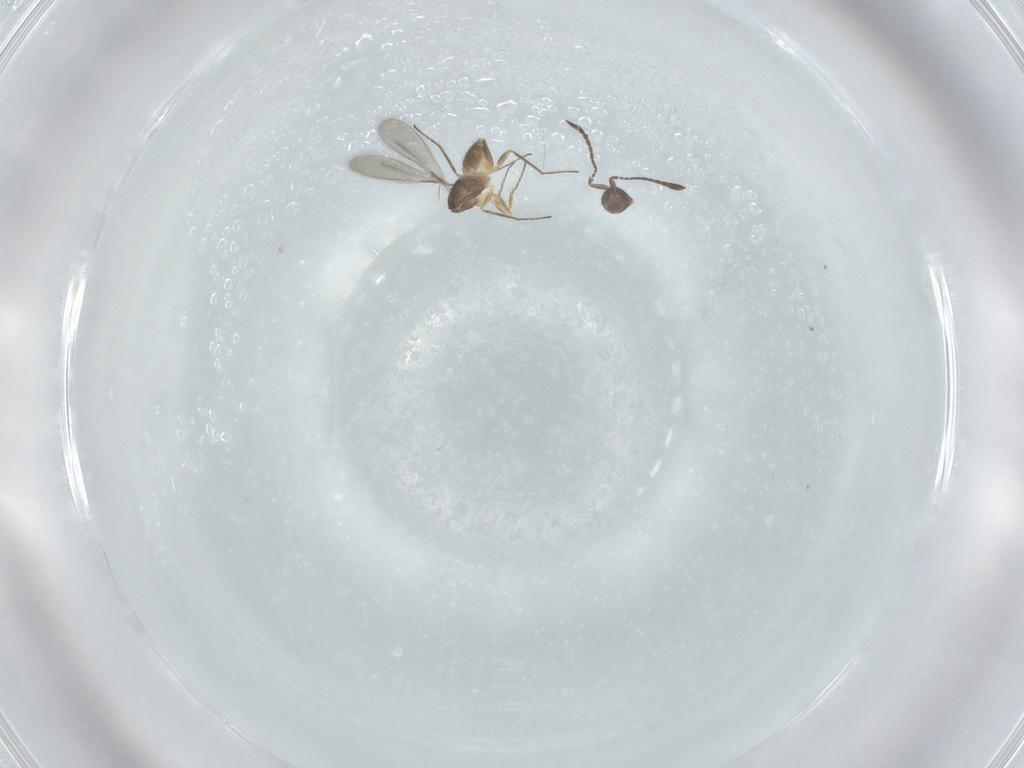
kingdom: Animalia
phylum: Arthropoda
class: Insecta
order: Hymenoptera
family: Mymaridae
